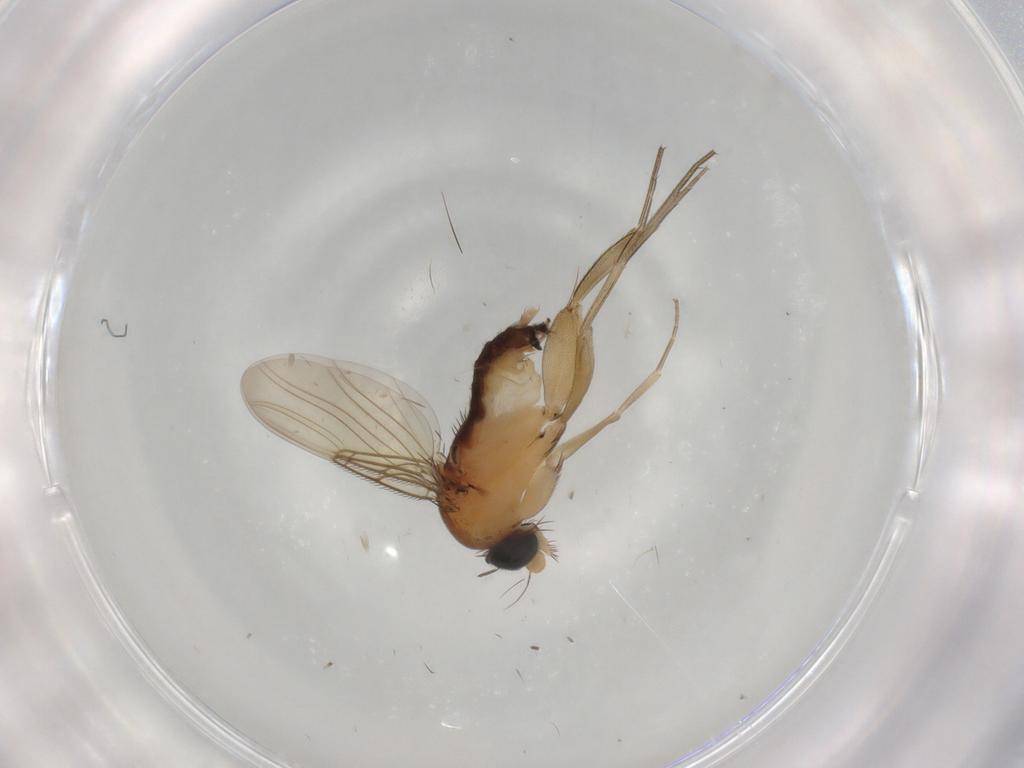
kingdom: Animalia
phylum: Arthropoda
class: Insecta
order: Diptera
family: Phoridae
